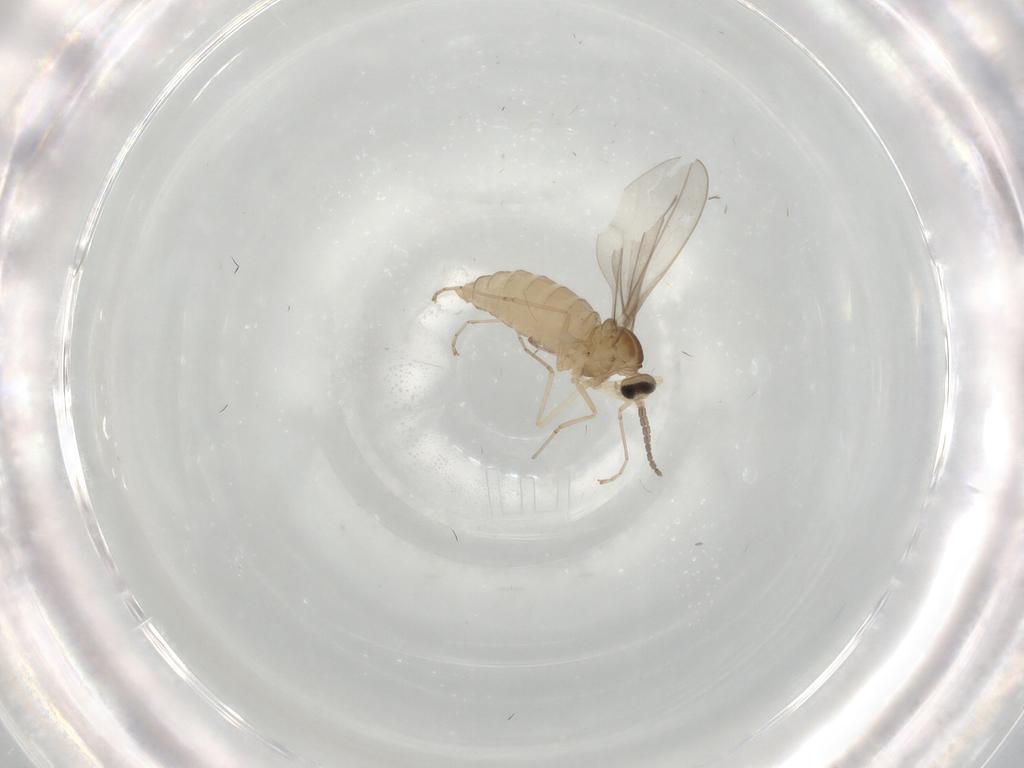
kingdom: Animalia
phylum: Arthropoda
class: Insecta
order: Diptera
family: Cecidomyiidae
